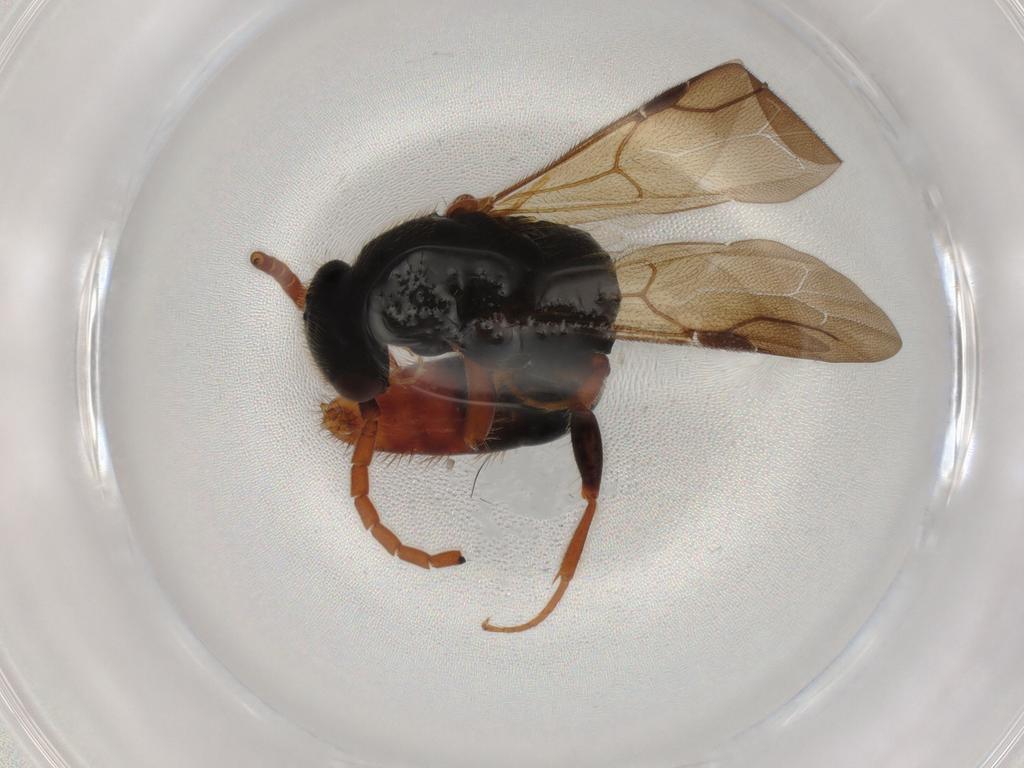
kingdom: Animalia
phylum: Arthropoda
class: Insecta
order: Hymenoptera
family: Bethylidae
